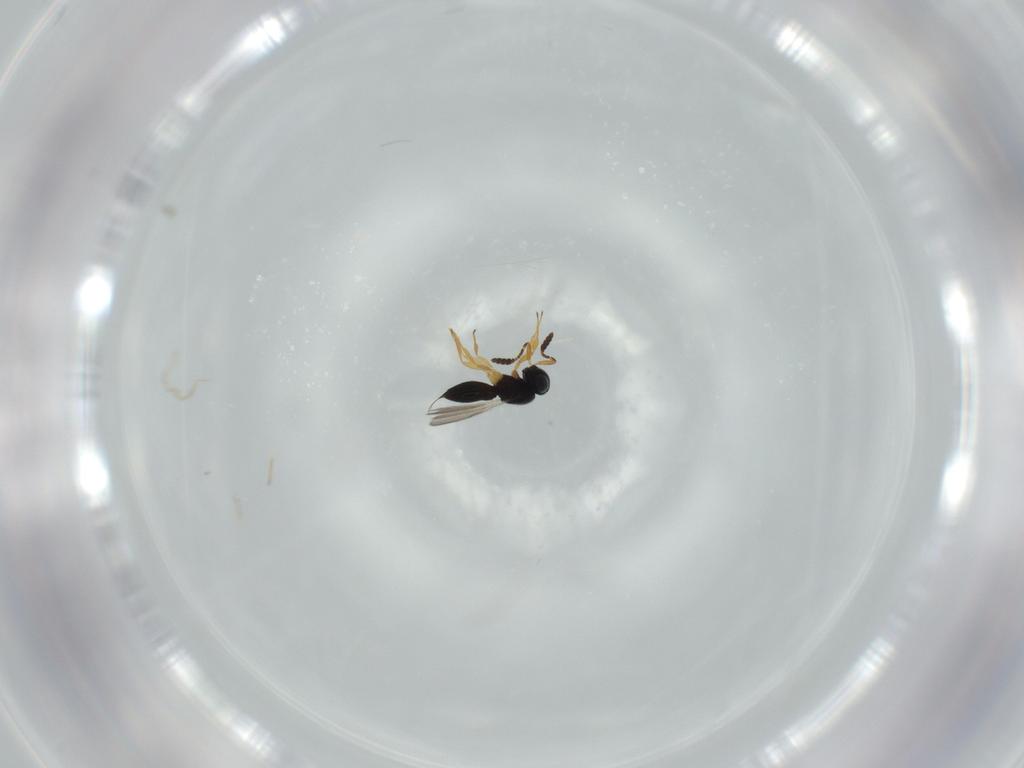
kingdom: Animalia
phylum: Arthropoda
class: Insecta
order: Hymenoptera
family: Scelionidae
